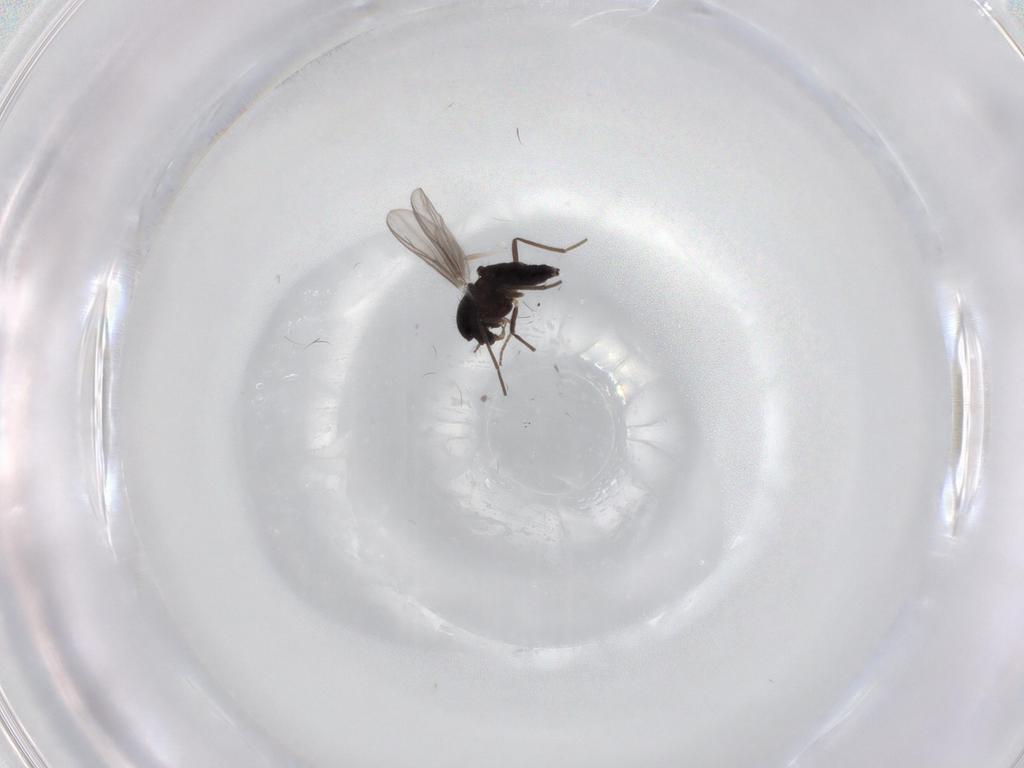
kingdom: Animalia
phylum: Arthropoda
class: Insecta
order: Diptera
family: Chironomidae
